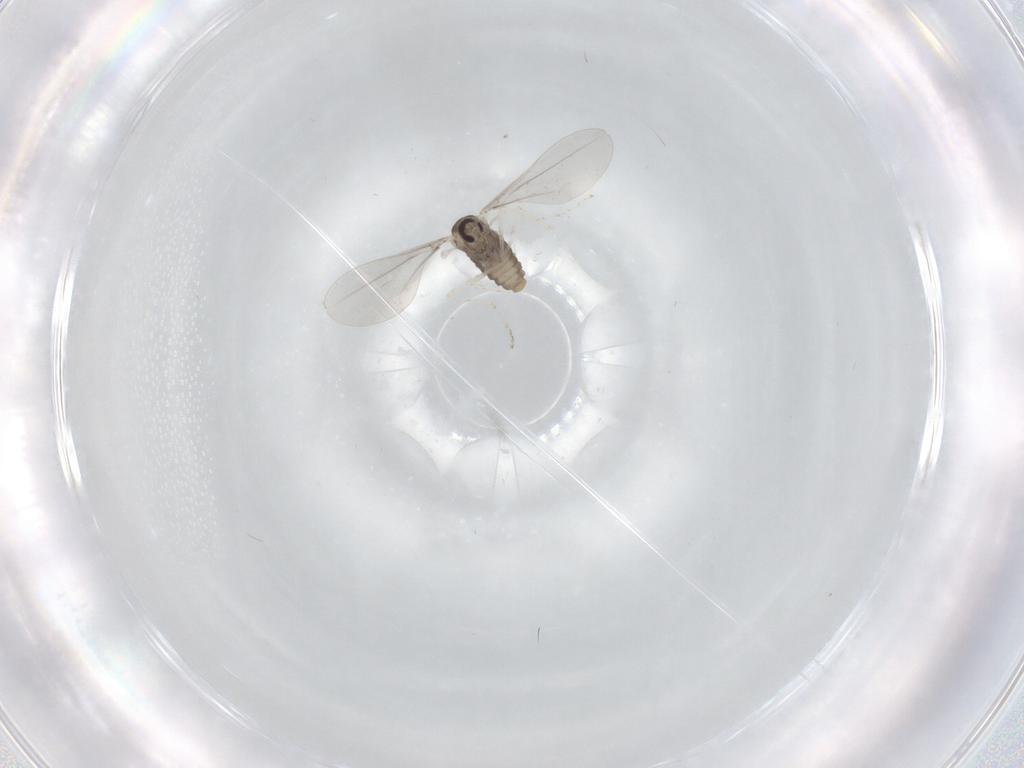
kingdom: Animalia
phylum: Arthropoda
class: Insecta
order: Diptera
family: Cecidomyiidae
